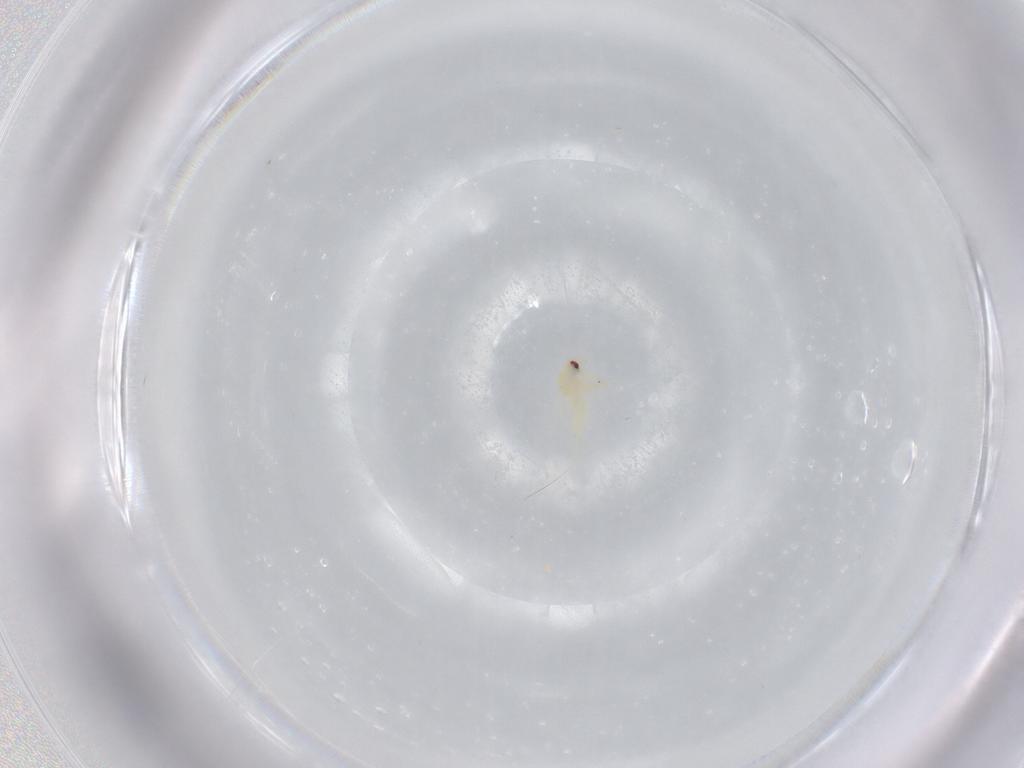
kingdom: Animalia
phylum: Arthropoda
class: Insecta
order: Hemiptera
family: Aleyrodidae
